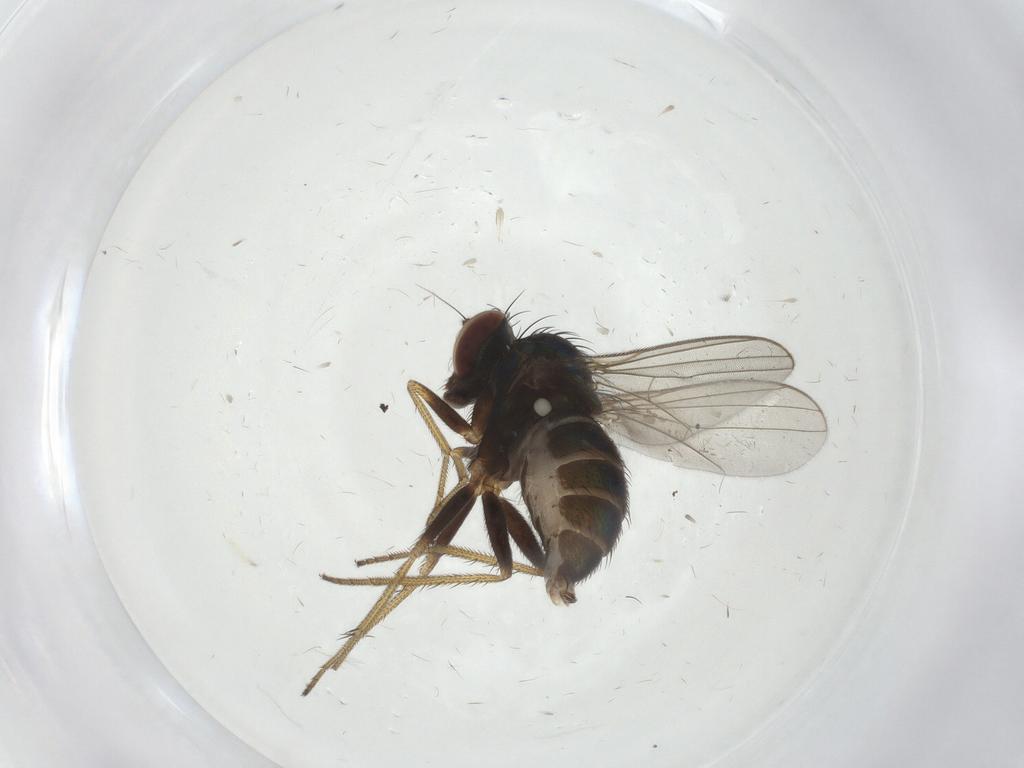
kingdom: Animalia
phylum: Arthropoda
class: Insecta
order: Diptera
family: Dolichopodidae
